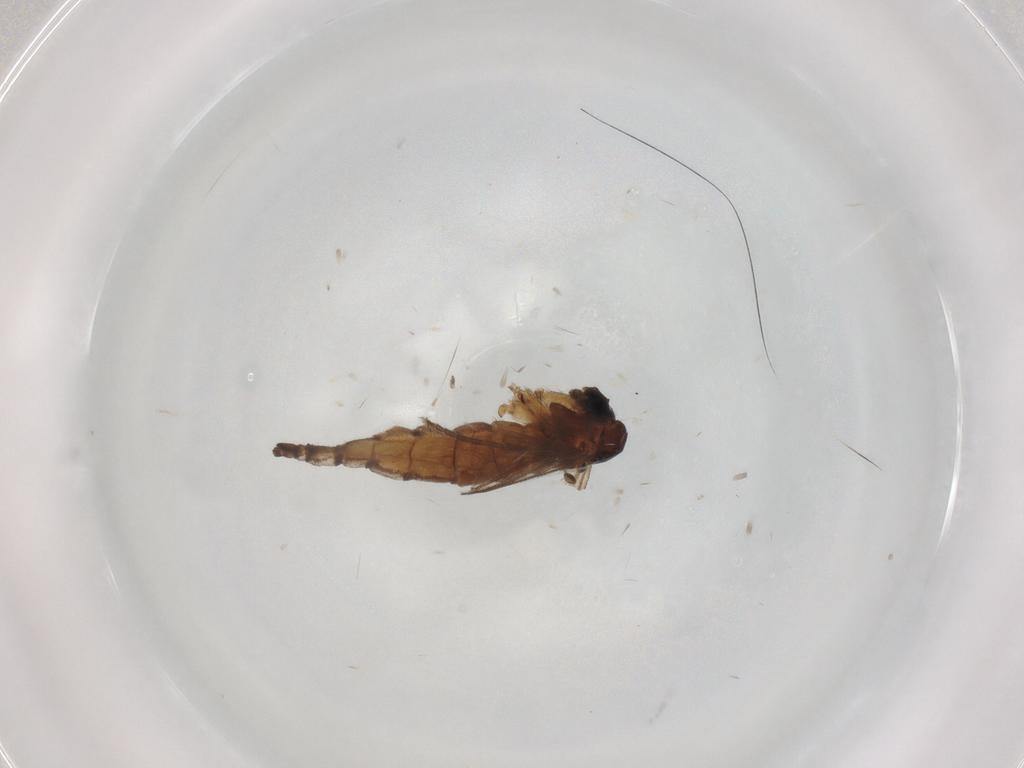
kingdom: Animalia
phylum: Arthropoda
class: Insecta
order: Diptera
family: Sciaridae
